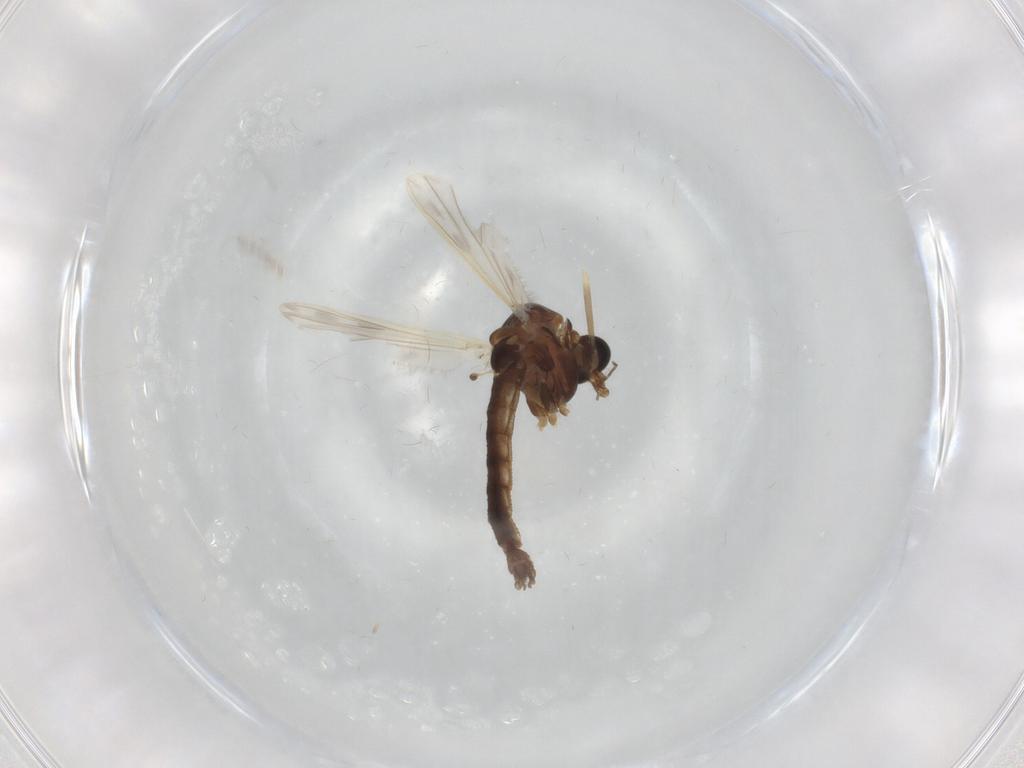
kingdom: Animalia
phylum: Arthropoda
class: Insecta
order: Diptera
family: Chironomidae
